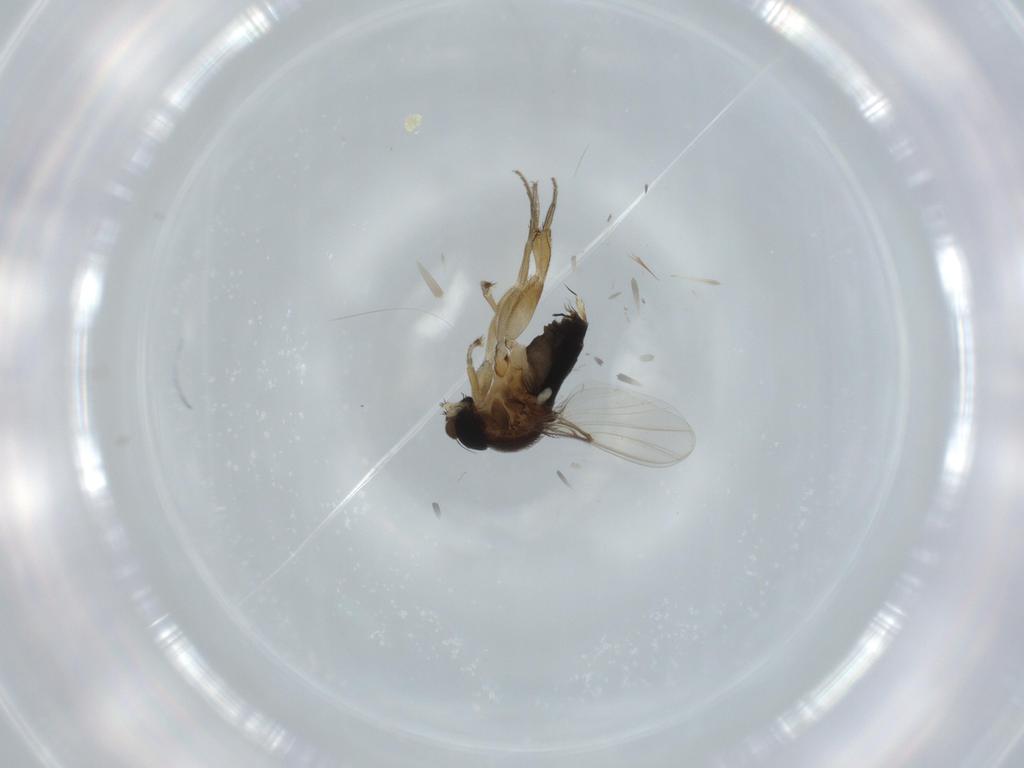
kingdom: Animalia
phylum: Arthropoda
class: Insecta
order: Diptera
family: Phoridae
